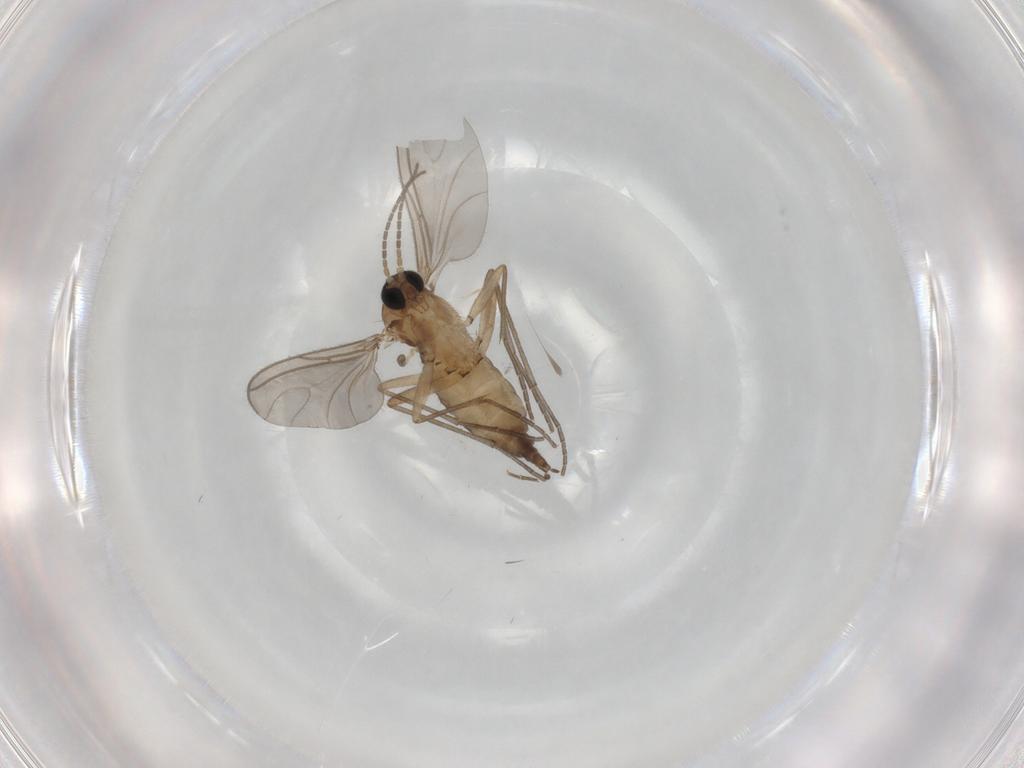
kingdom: Animalia
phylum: Arthropoda
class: Insecta
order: Diptera
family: Sciaridae
